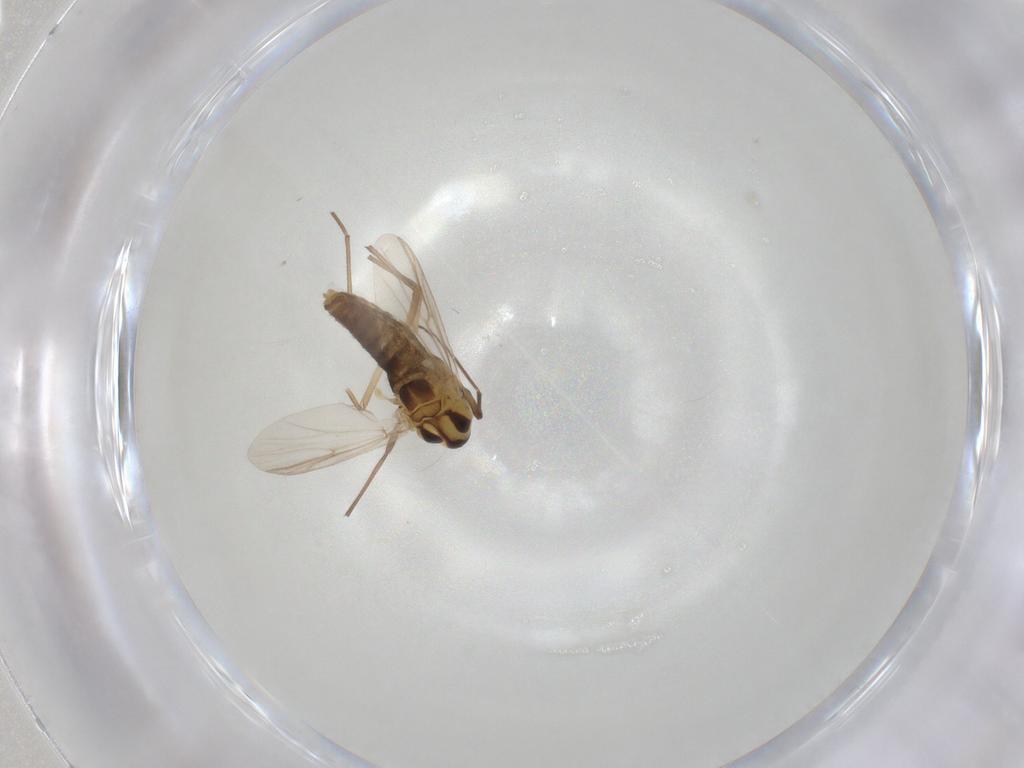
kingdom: Animalia
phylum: Arthropoda
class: Insecta
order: Diptera
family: Chironomidae
